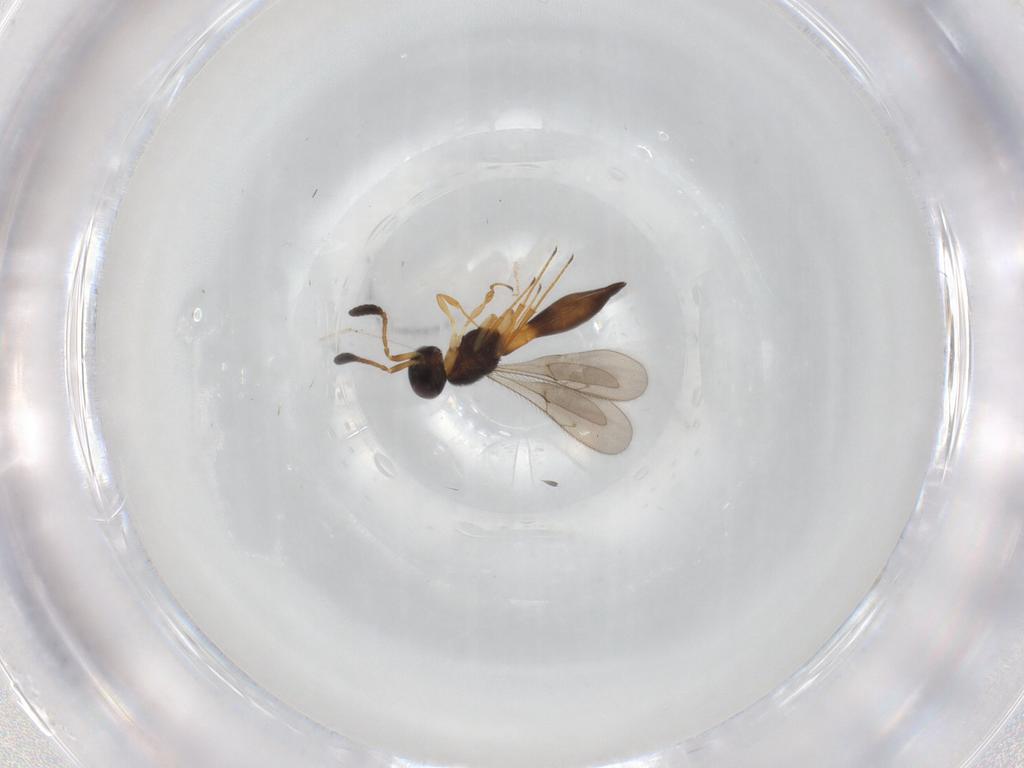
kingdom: Animalia
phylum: Arthropoda
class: Insecta
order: Hymenoptera
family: Scelionidae
